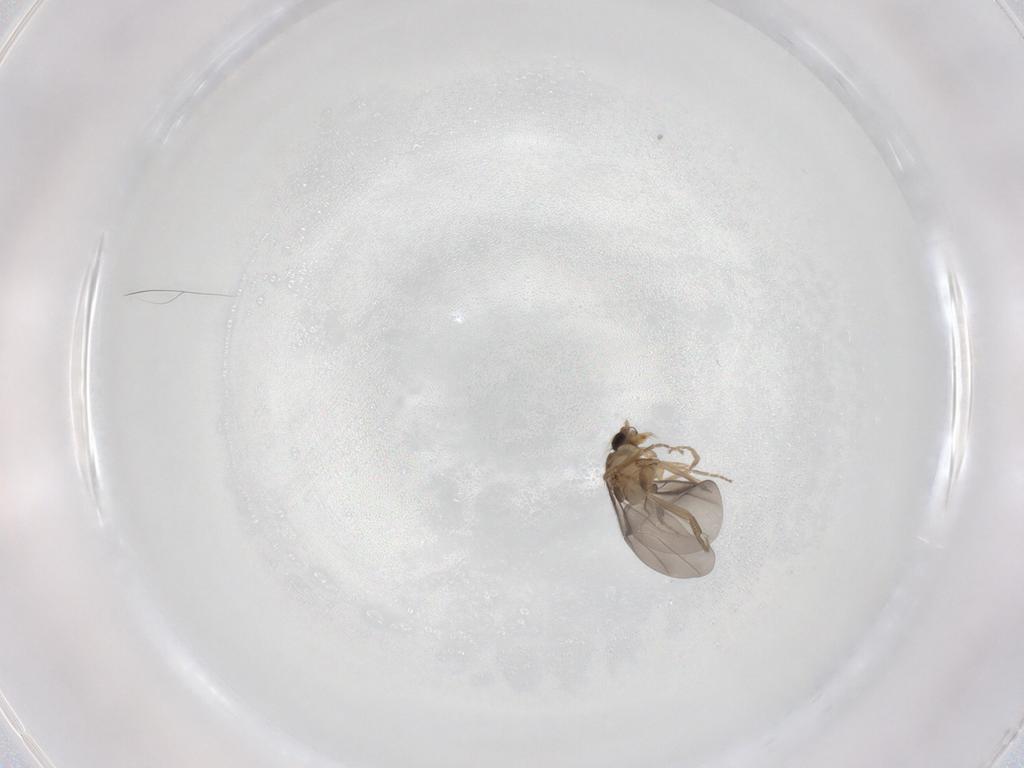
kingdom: Animalia
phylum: Arthropoda
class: Insecta
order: Diptera
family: Phoridae
